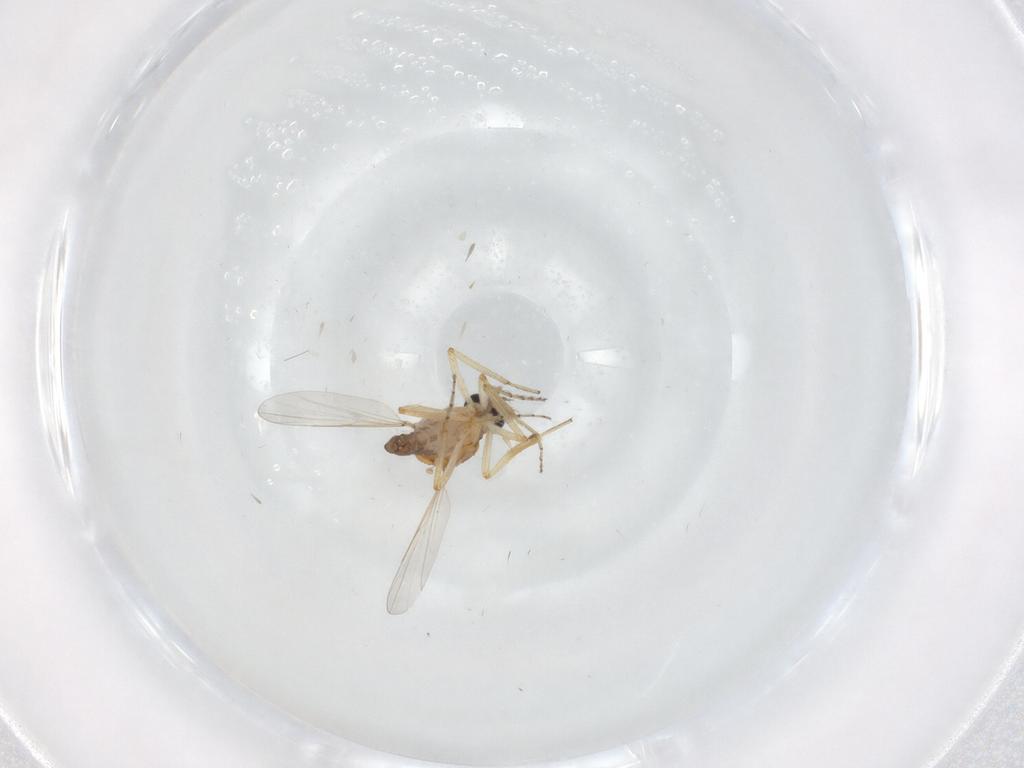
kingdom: Animalia
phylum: Arthropoda
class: Insecta
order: Diptera
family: Ceratopogonidae
